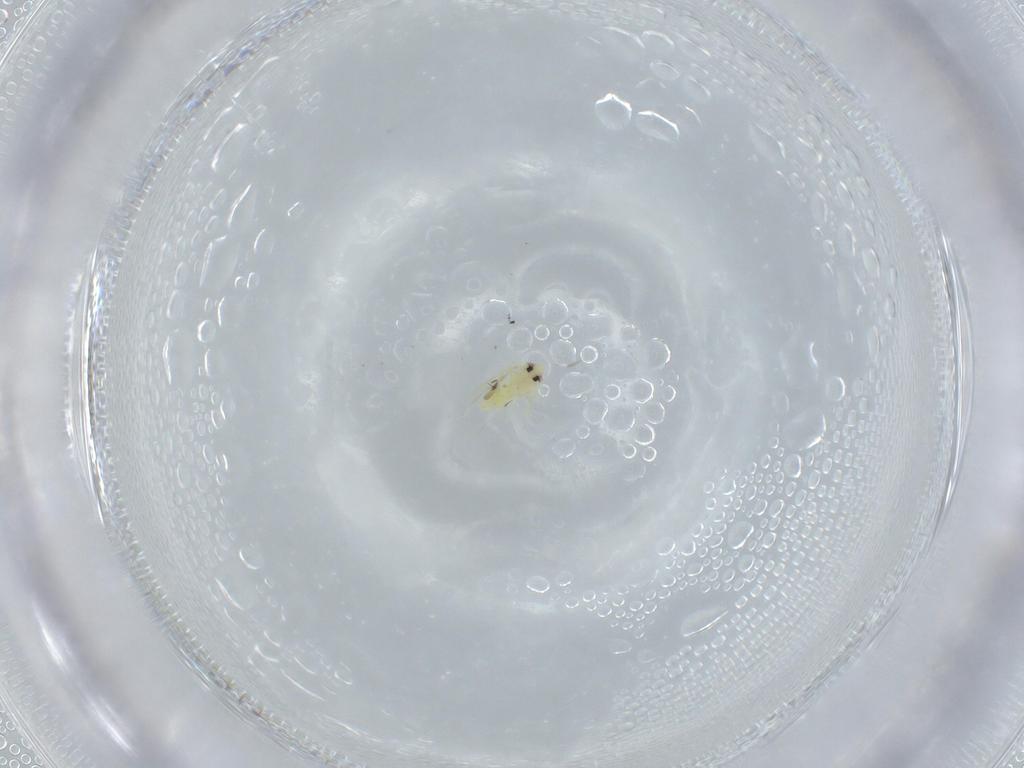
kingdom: Animalia
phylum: Arthropoda
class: Insecta
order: Hemiptera
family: Aleyrodidae
